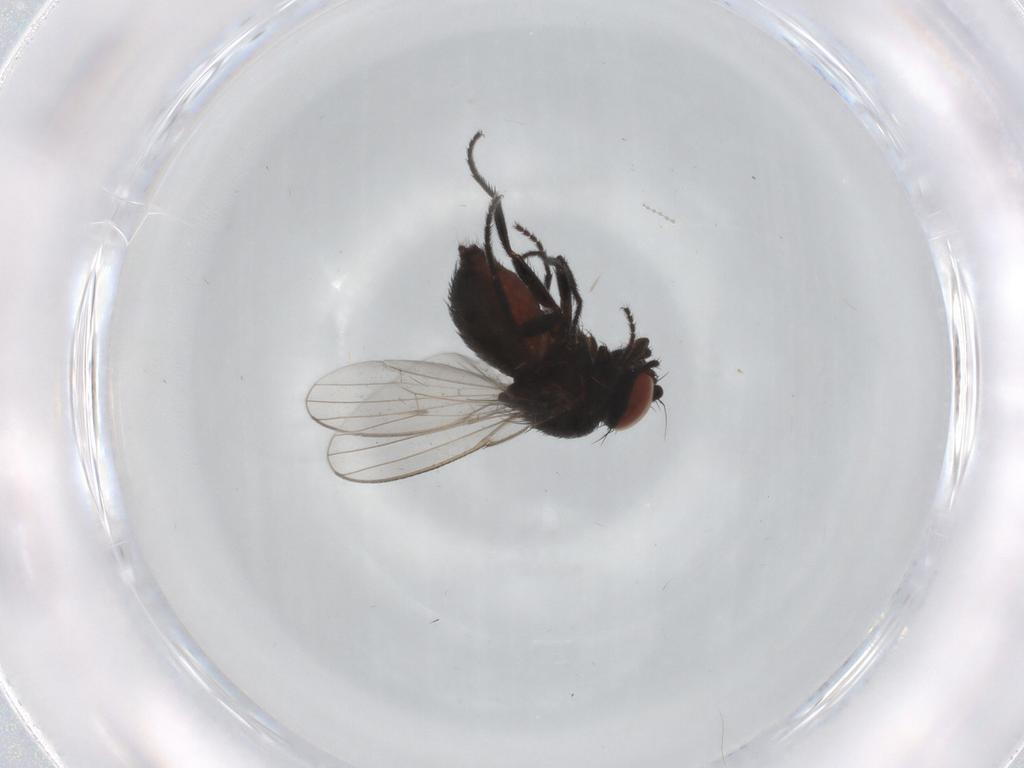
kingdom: Animalia
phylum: Arthropoda
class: Insecta
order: Diptera
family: Milichiidae
